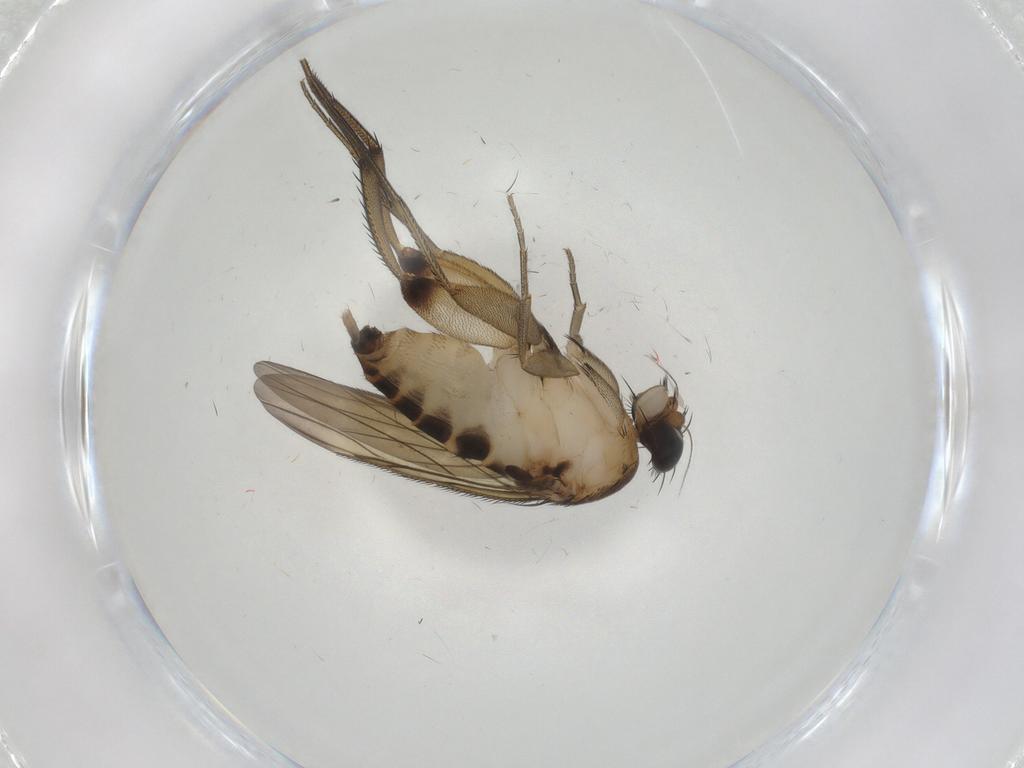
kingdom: Animalia
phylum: Arthropoda
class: Insecta
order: Diptera
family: Phoridae
